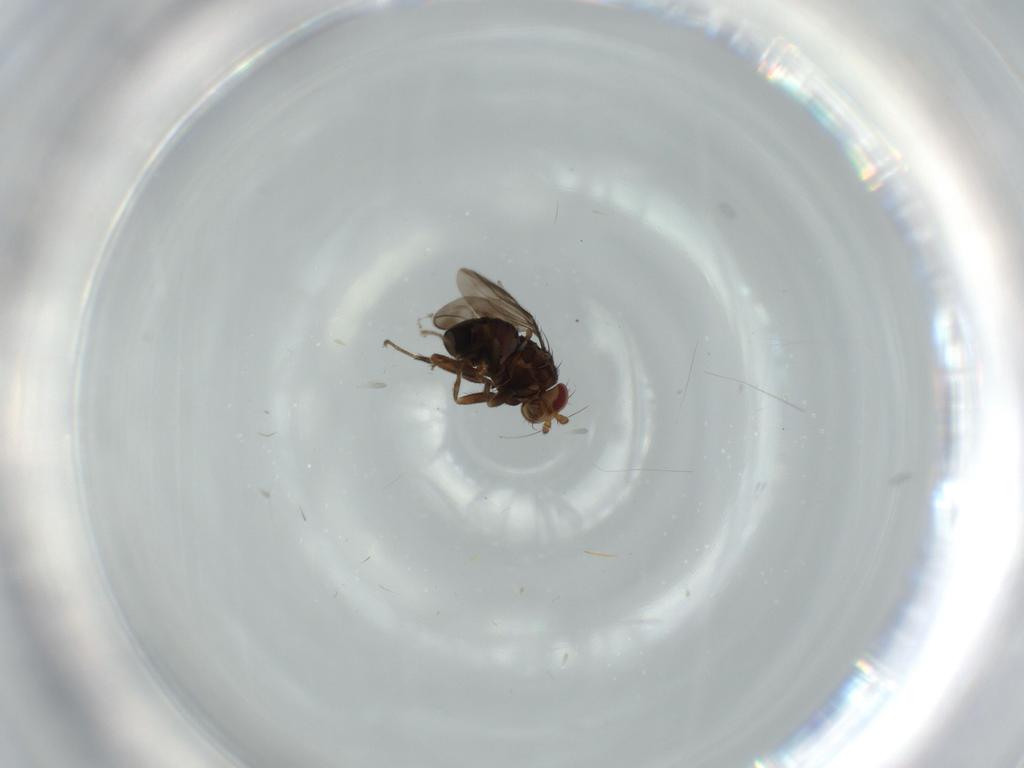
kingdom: Animalia
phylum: Arthropoda
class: Insecta
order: Diptera
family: Sphaeroceridae
